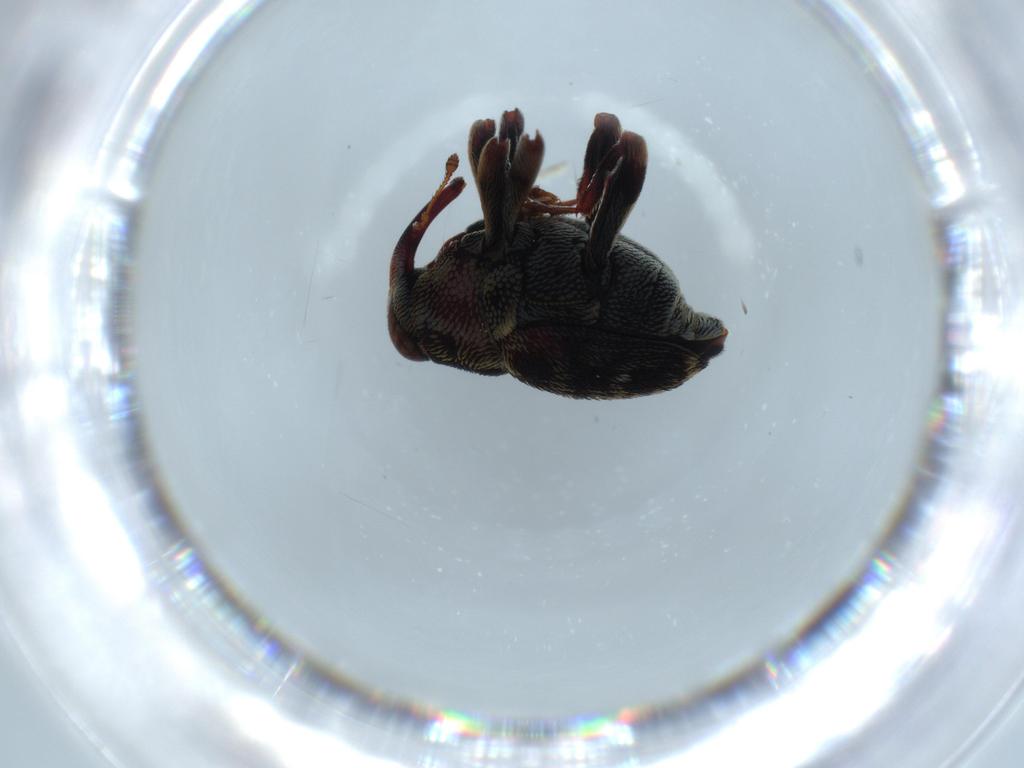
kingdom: Animalia
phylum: Arthropoda
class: Insecta
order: Coleoptera
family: Curculionidae
